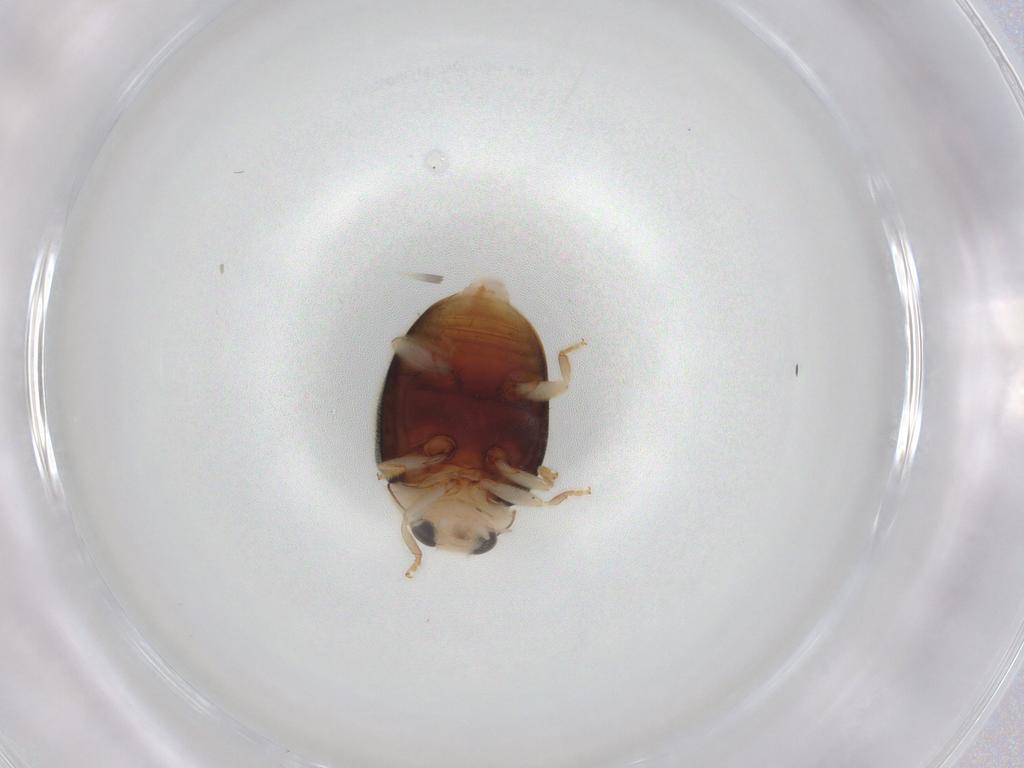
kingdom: Animalia
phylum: Arthropoda
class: Insecta
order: Coleoptera
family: Coccinellidae
